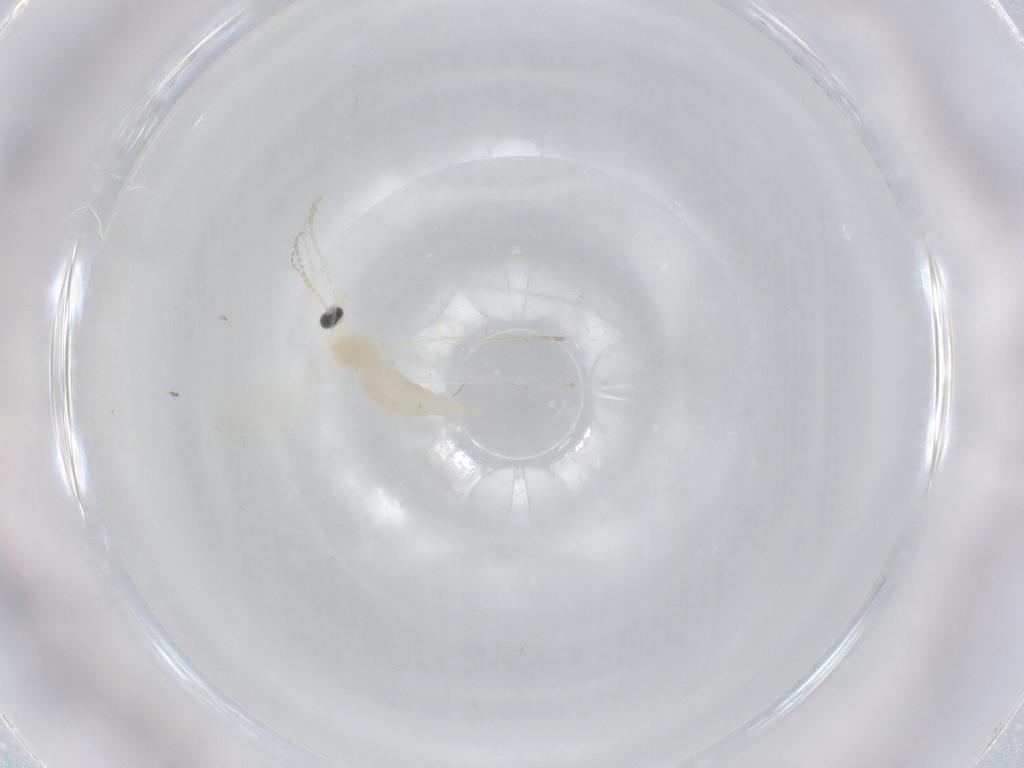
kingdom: Animalia
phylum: Arthropoda
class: Insecta
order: Diptera
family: Cecidomyiidae
